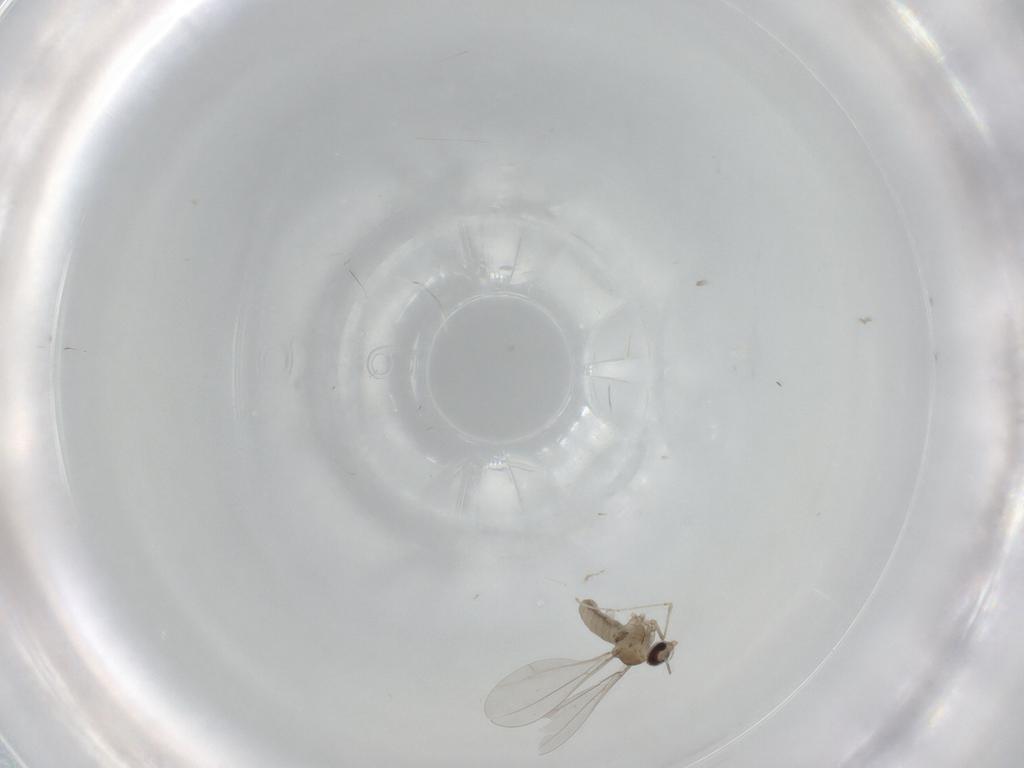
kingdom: Animalia
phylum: Arthropoda
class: Insecta
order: Diptera
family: Cecidomyiidae
